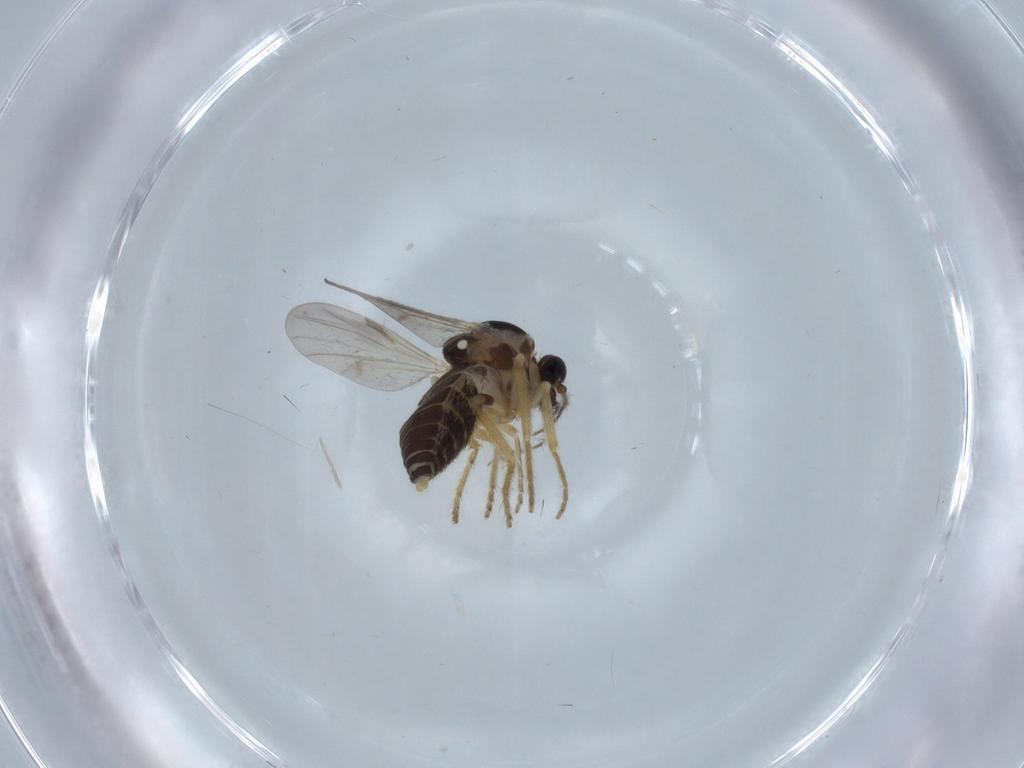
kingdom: Animalia
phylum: Arthropoda
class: Insecta
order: Diptera
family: Ceratopogonidae
